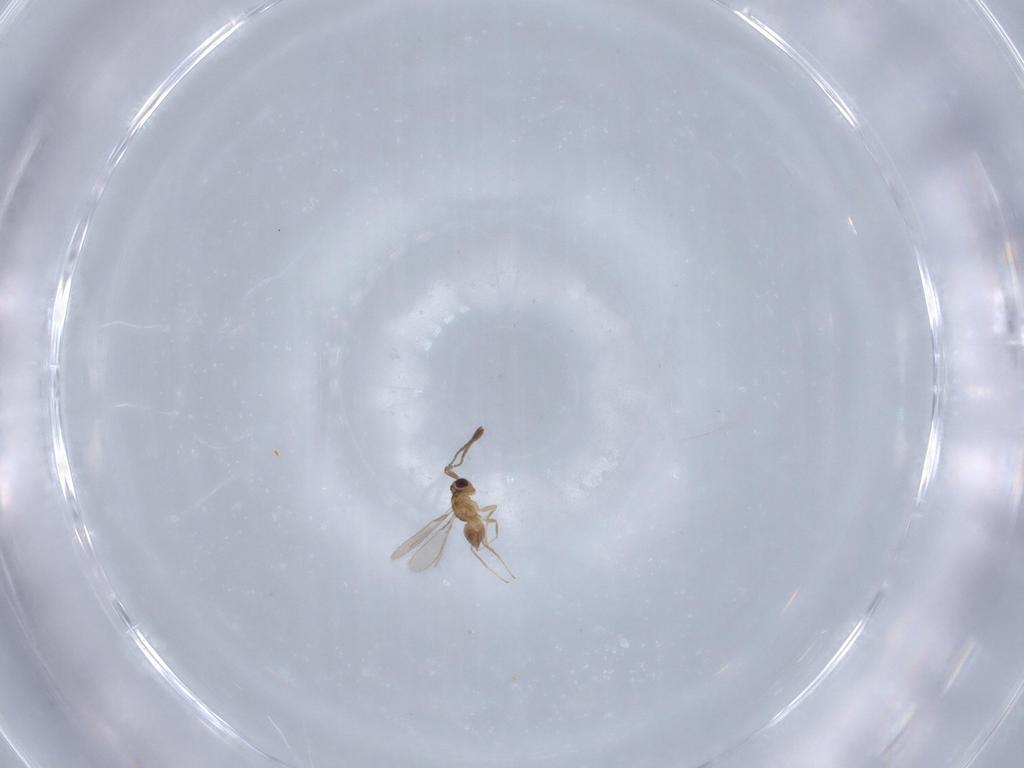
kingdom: Animalia
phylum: Arthropoda
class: Insecta
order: Hymenoptera
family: Mymaridae
